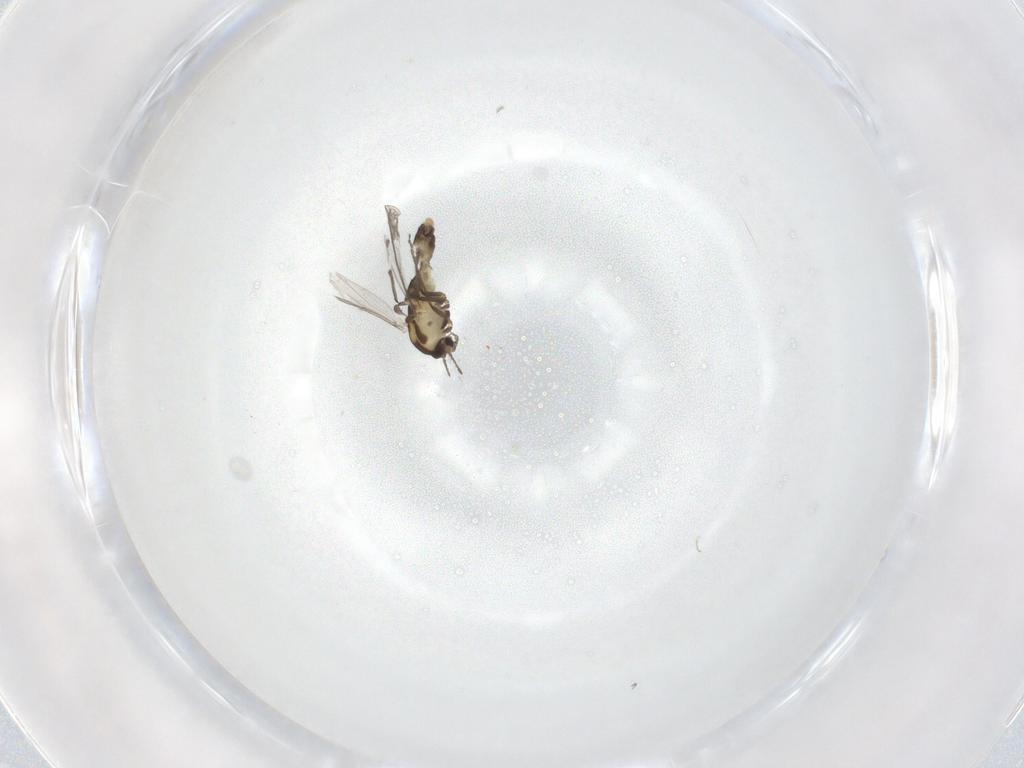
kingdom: Animalia
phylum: Arthropoda
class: Insecta
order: Diptera
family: Chironomidae
